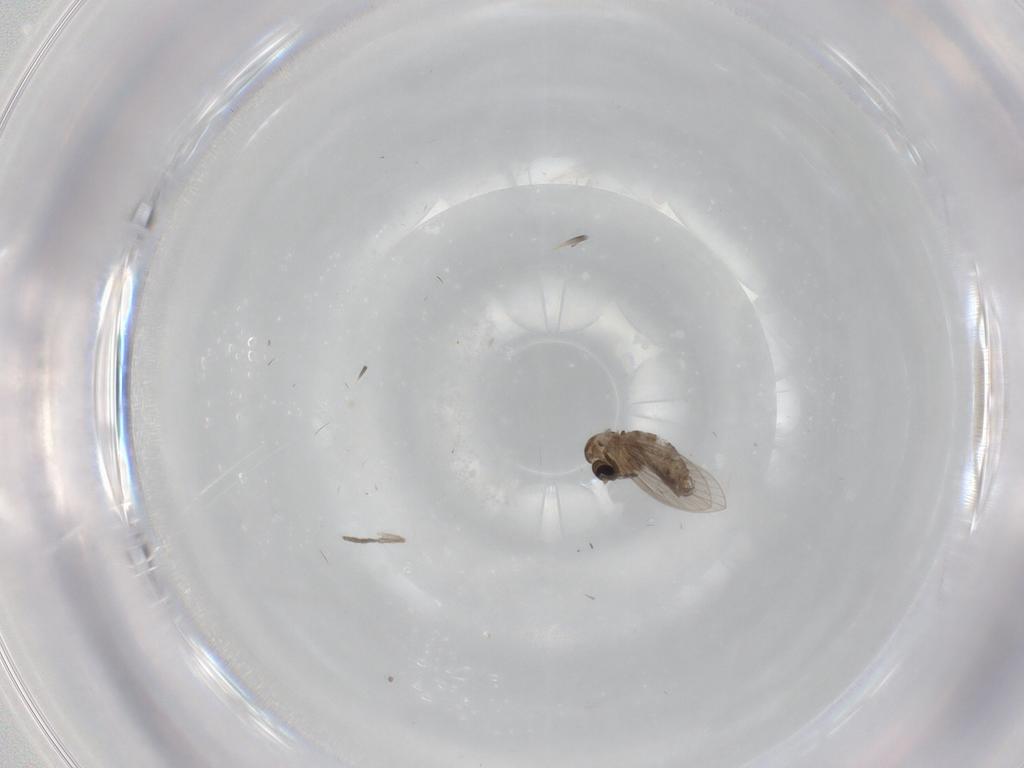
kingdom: Animalia
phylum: Arthropoda
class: Insecta
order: Diptera
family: Psychodidae
